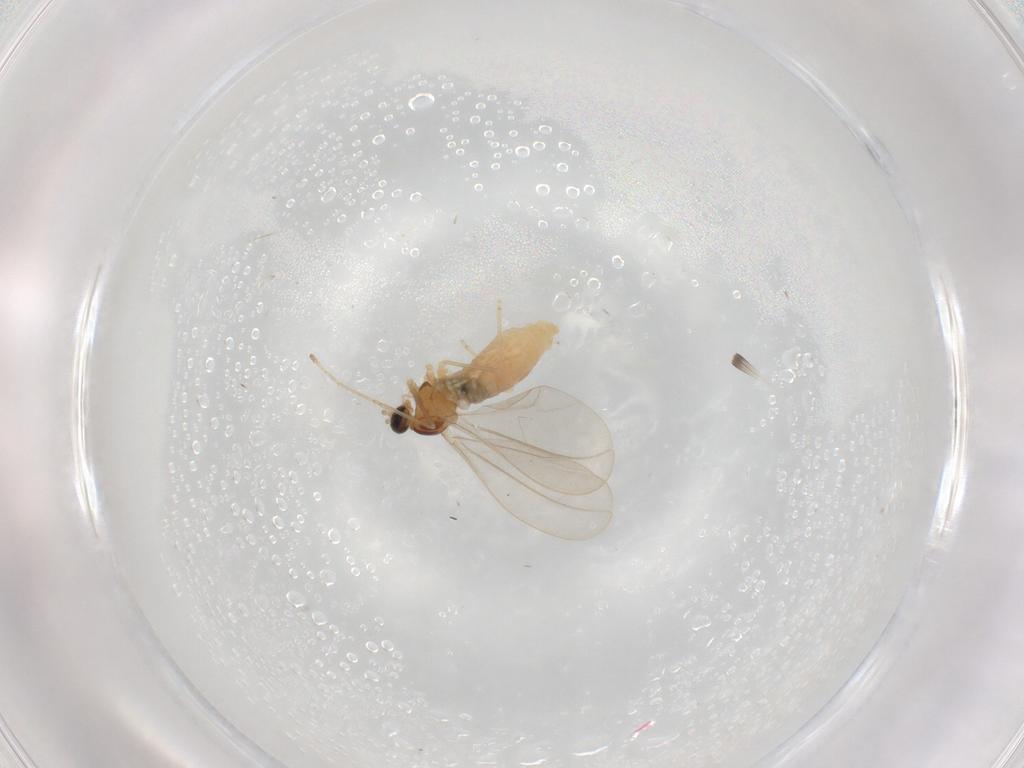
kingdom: Animalia
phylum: Arthropoda
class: Insecta
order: Diptera
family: Cecidomyiidae
